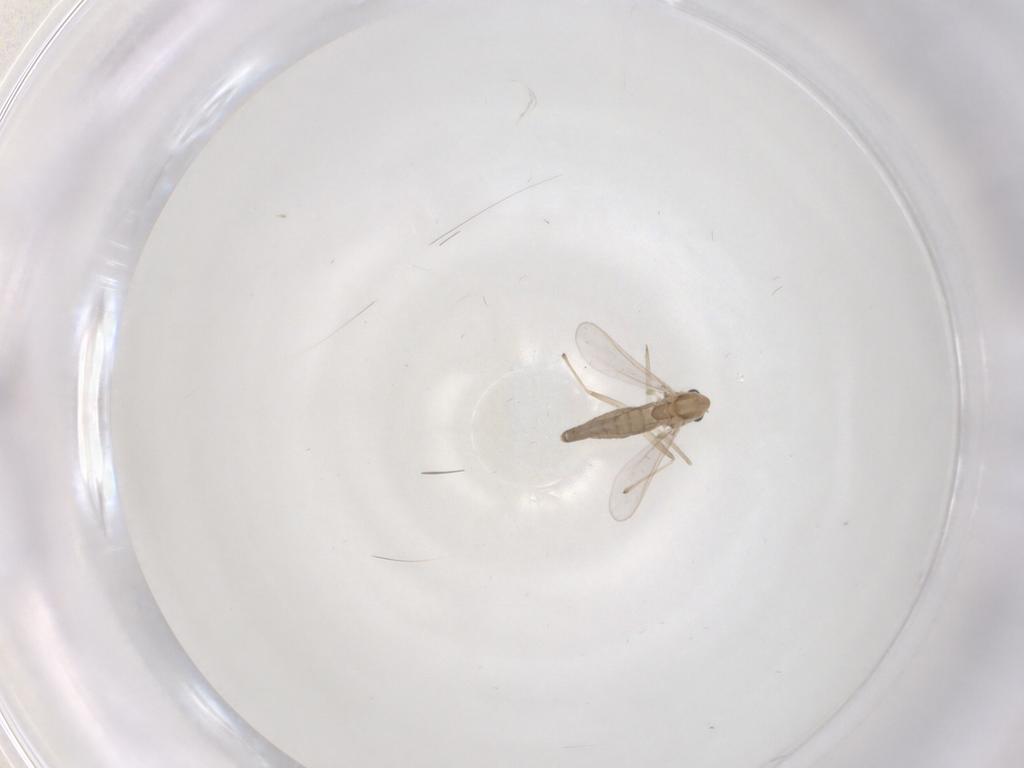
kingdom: Animalia
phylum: Arthropoda
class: Insecta
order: Diptera
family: Chironomidae
